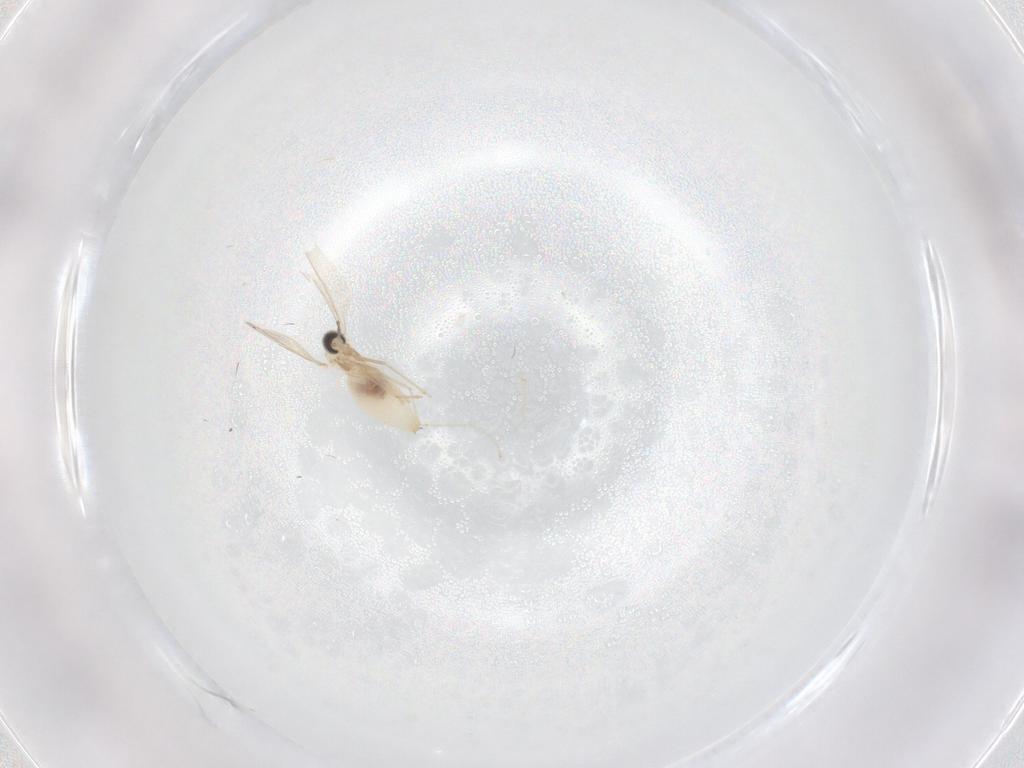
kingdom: Animalia
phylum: Arthropoda
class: Insecta
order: Diptera
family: Cecidomyiidae
